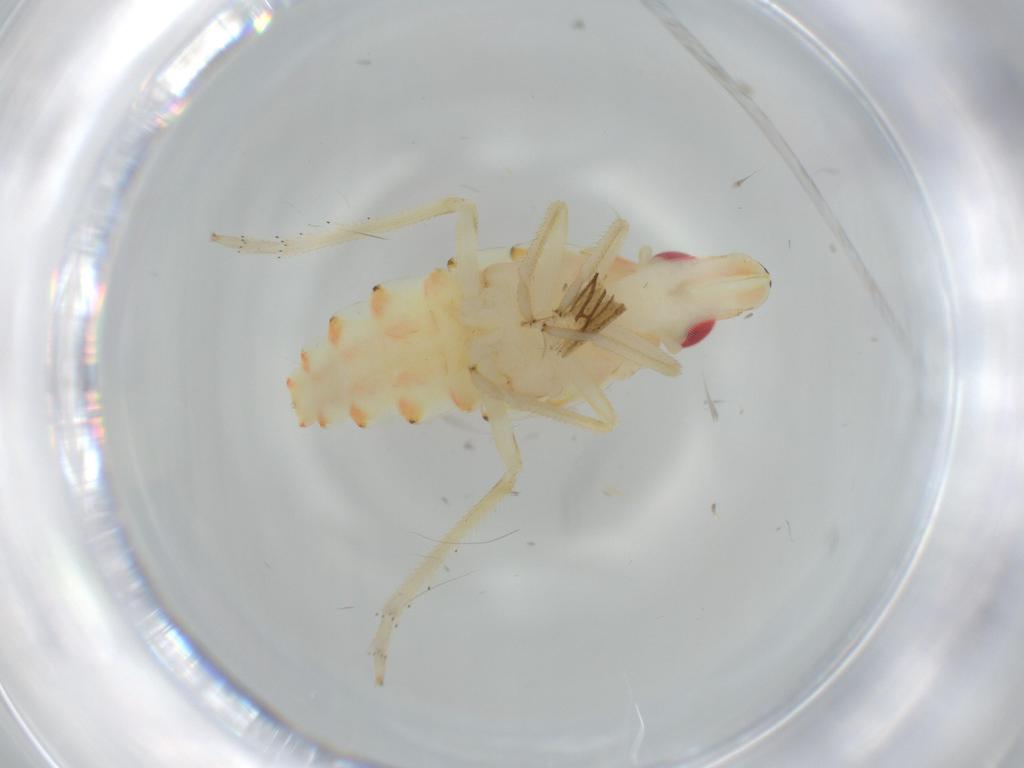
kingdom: Animalia
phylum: Arthropoda
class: Insecta
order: Hemiptera
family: Tropiduchidae
